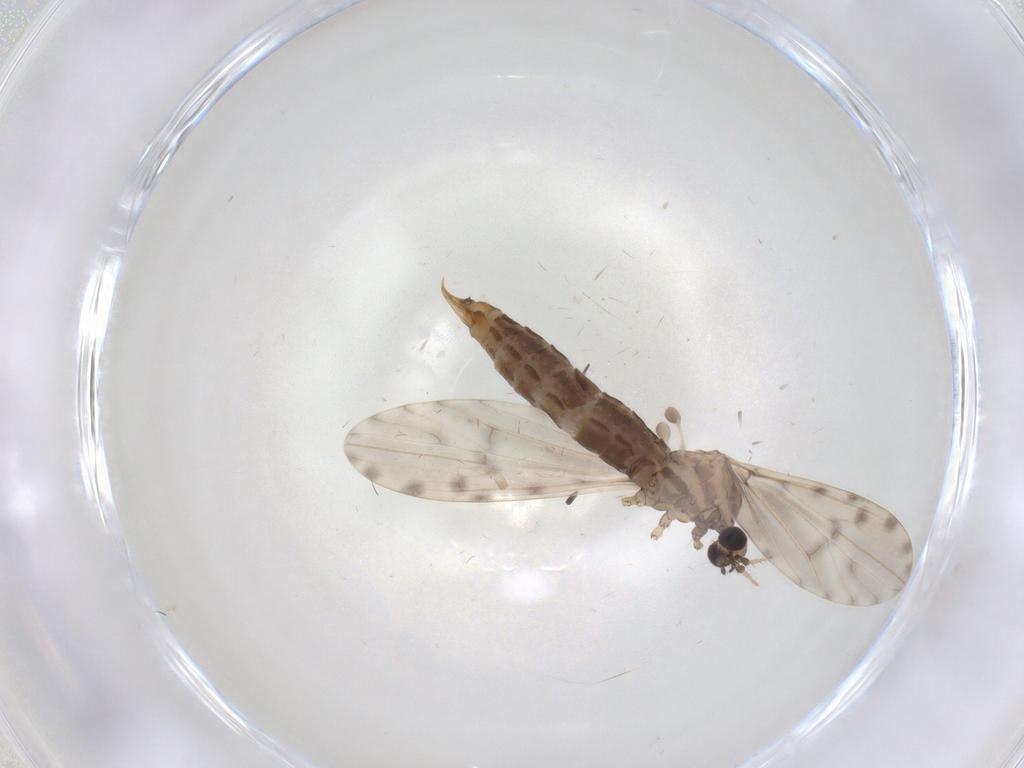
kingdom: Animalia
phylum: Arthropoda
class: Insecta
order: Diptera
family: Limoniidae
